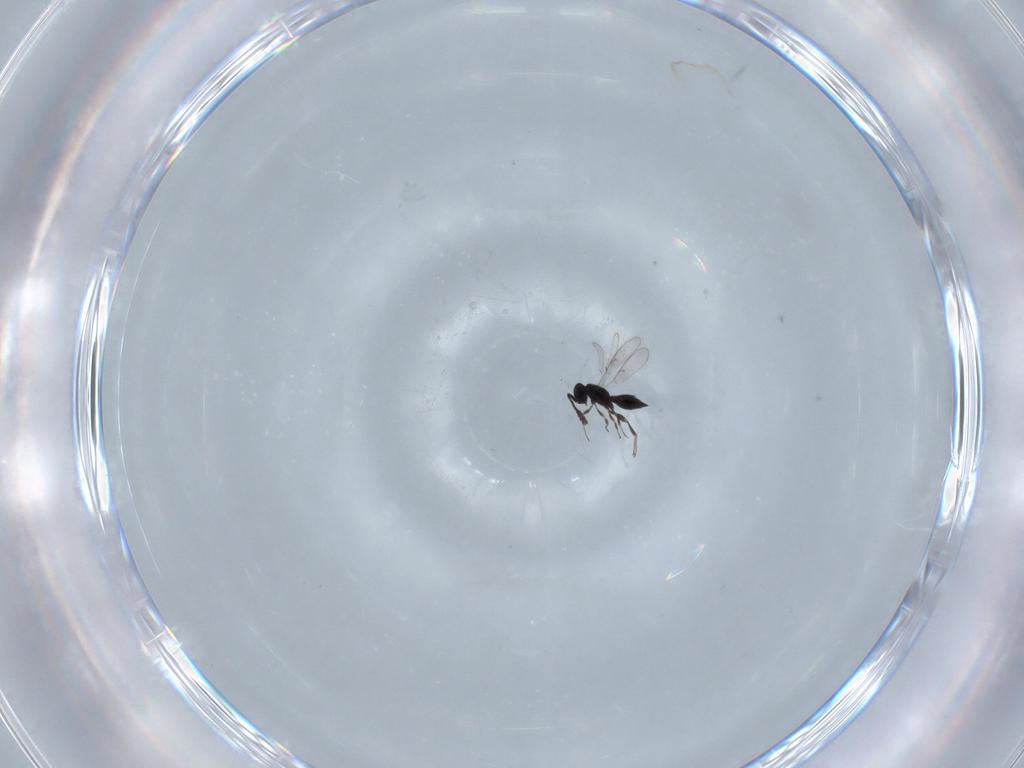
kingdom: Animalia
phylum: Arthropoda
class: Insecta
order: Hymenoptera
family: Scelionidae
